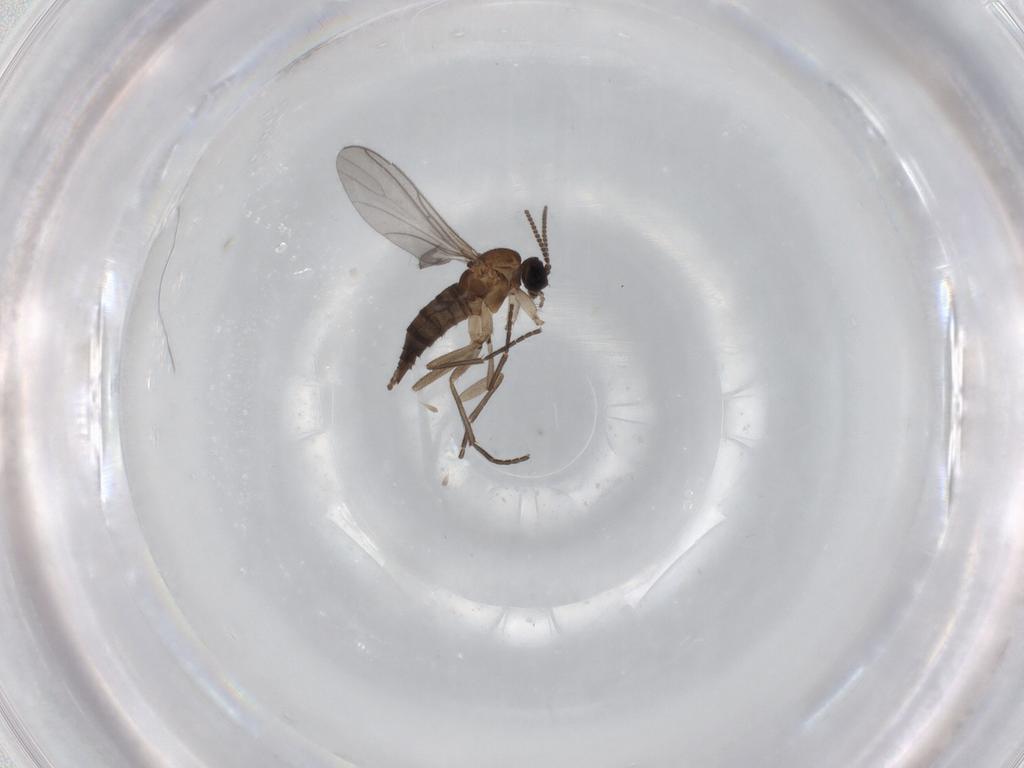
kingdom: Animalia
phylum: Arthropoda
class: Insecta
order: Diptera
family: Sciaridae
